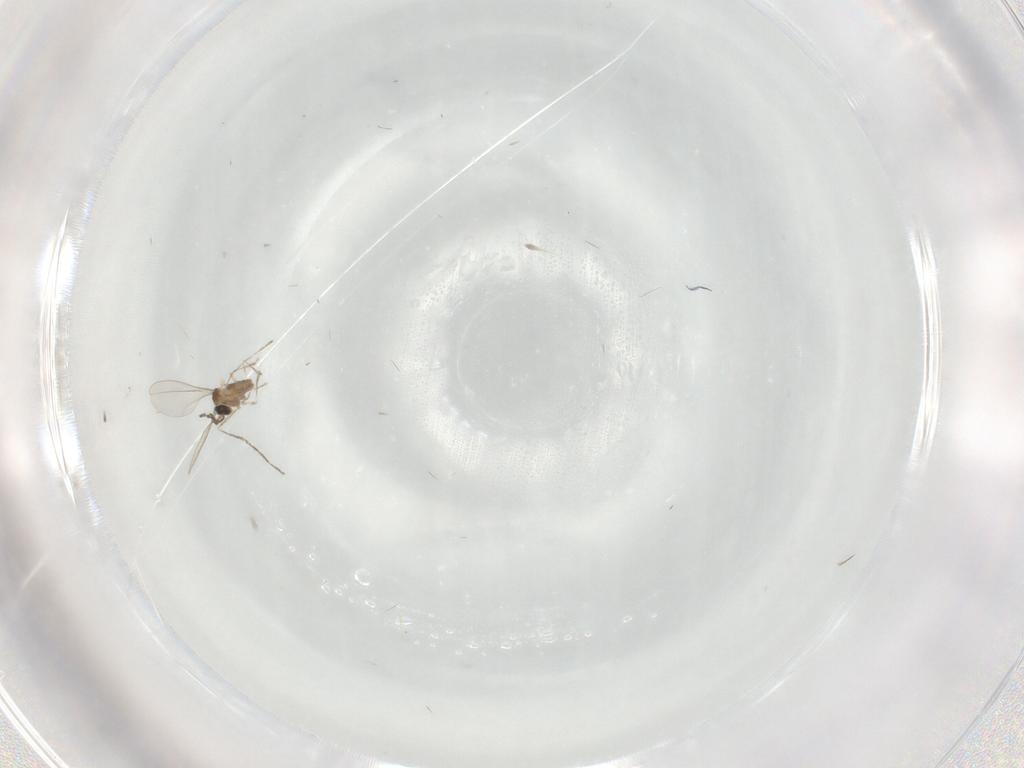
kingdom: Animalia
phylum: Arthropoda
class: Insecta
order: Diptera
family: Cecidomyiidae
